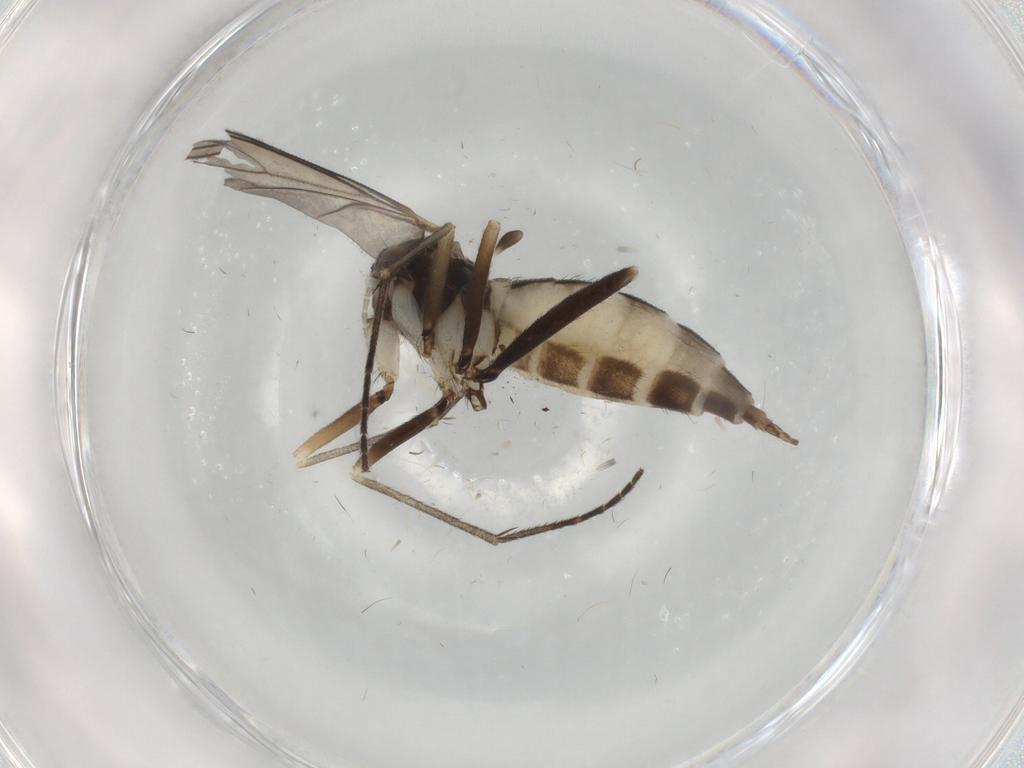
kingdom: Animalia
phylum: Arthropoda
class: Insecta
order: Diptera
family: Sciaridae
